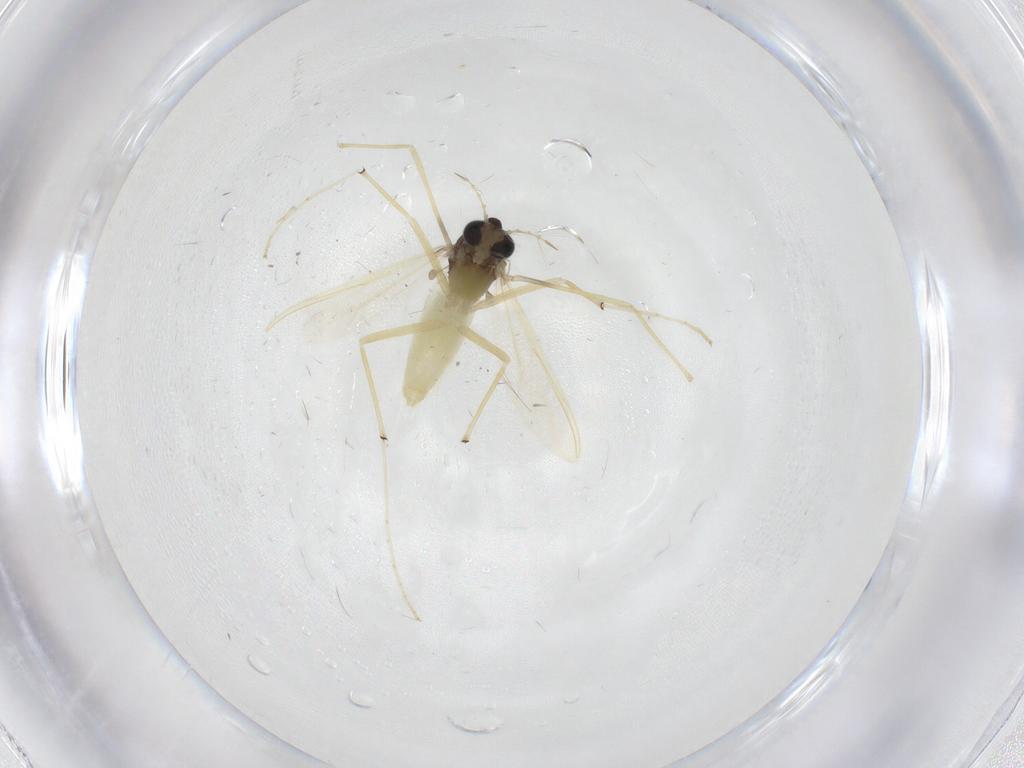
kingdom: Animalia
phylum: Arthropoda
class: Insecta
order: Diptera
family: Chironomidae
